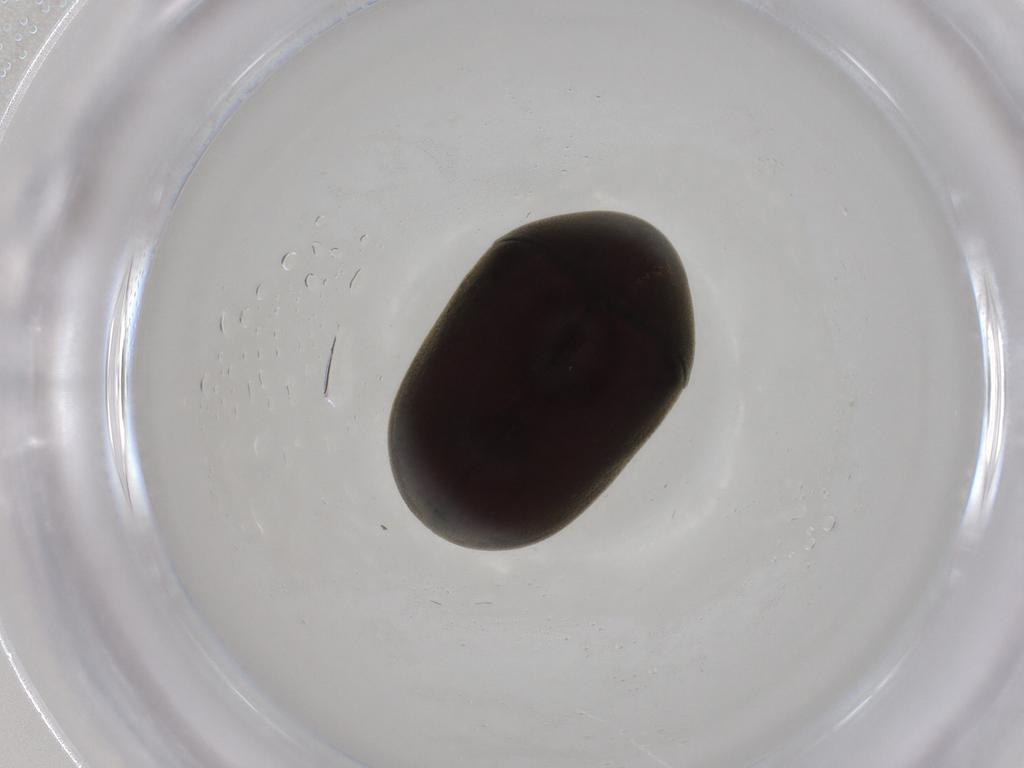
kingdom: Animalia
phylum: Arthropoda
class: Insecta
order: Coleoptera
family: Ptinidae
